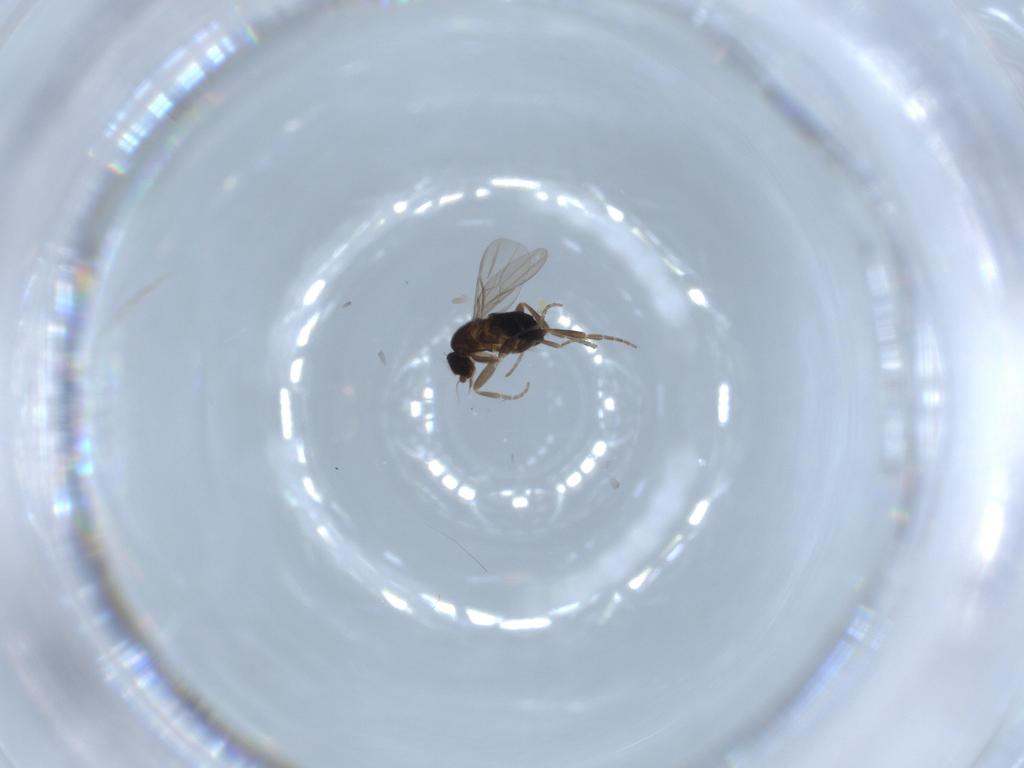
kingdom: Animalia
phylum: Arthropoda
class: Insecta
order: Diptera
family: Phoridae
